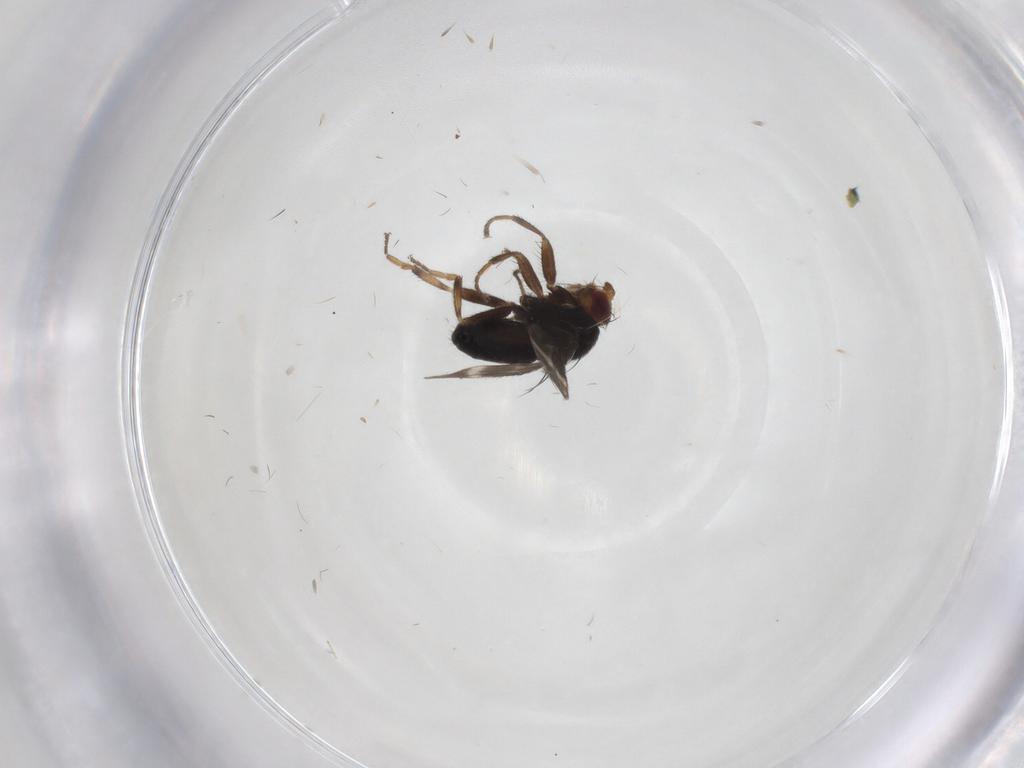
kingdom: Animalia
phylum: Arthropoda
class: Insecta
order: Diptera
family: Sphaeroceridae
